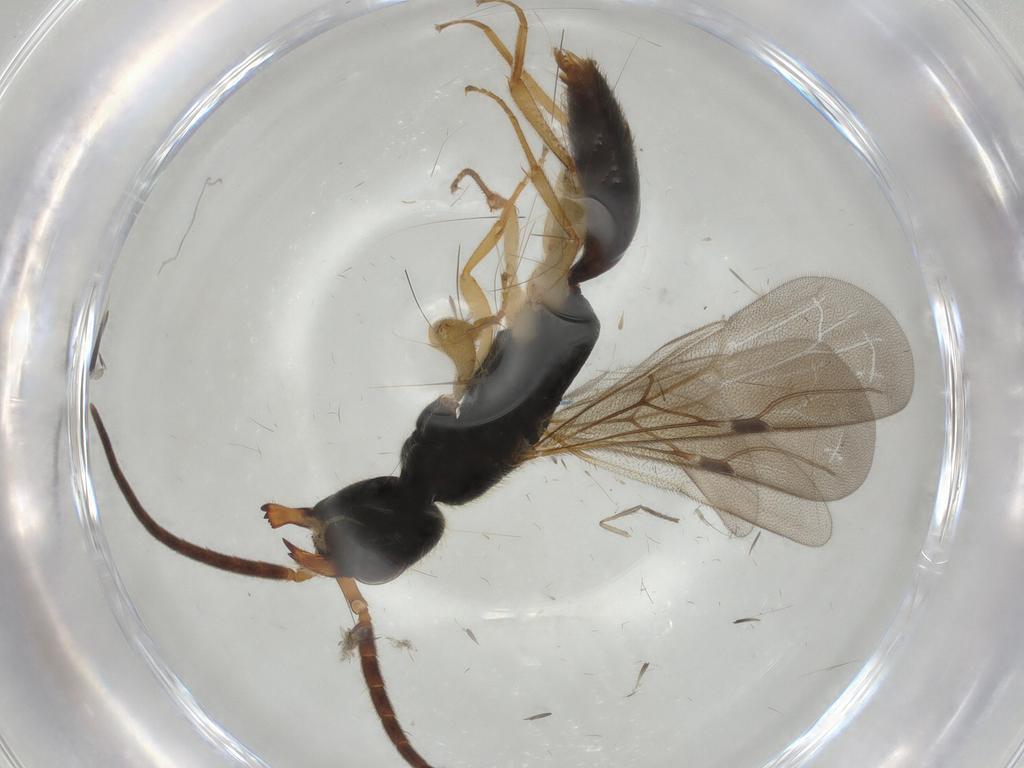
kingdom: Animalia
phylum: Arthropoda
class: Insecta
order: Hymenoptera
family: Bethylidae
